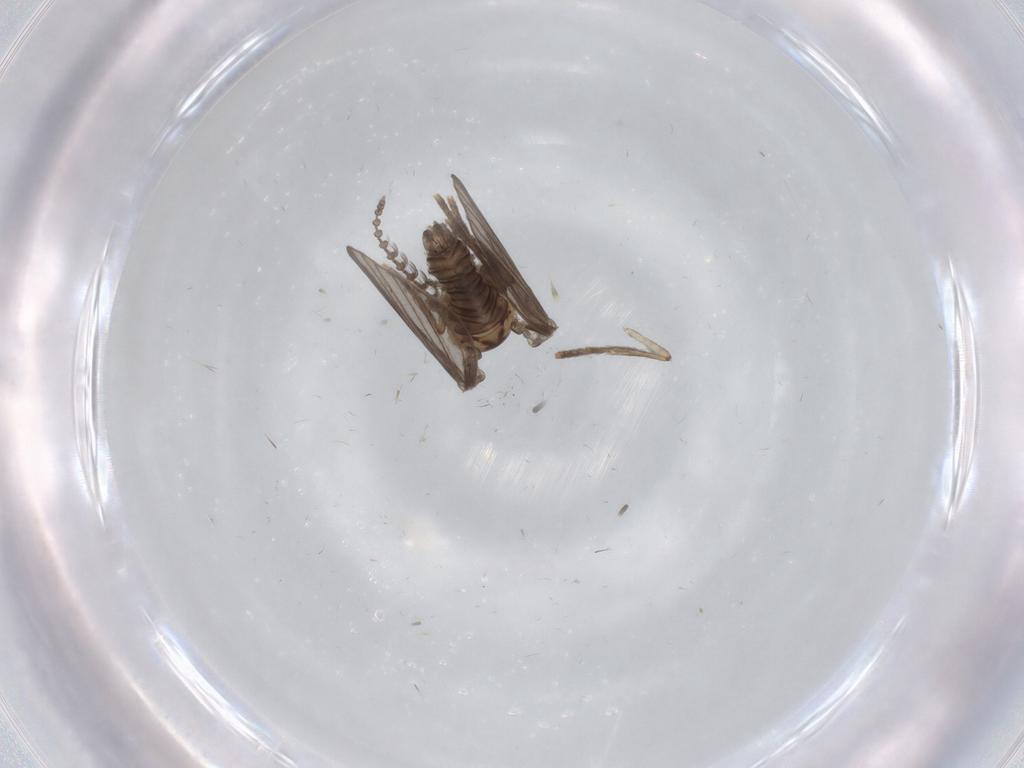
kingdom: Animalia
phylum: Arthropoda
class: Insecta
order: Diptera
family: Psychodidae
